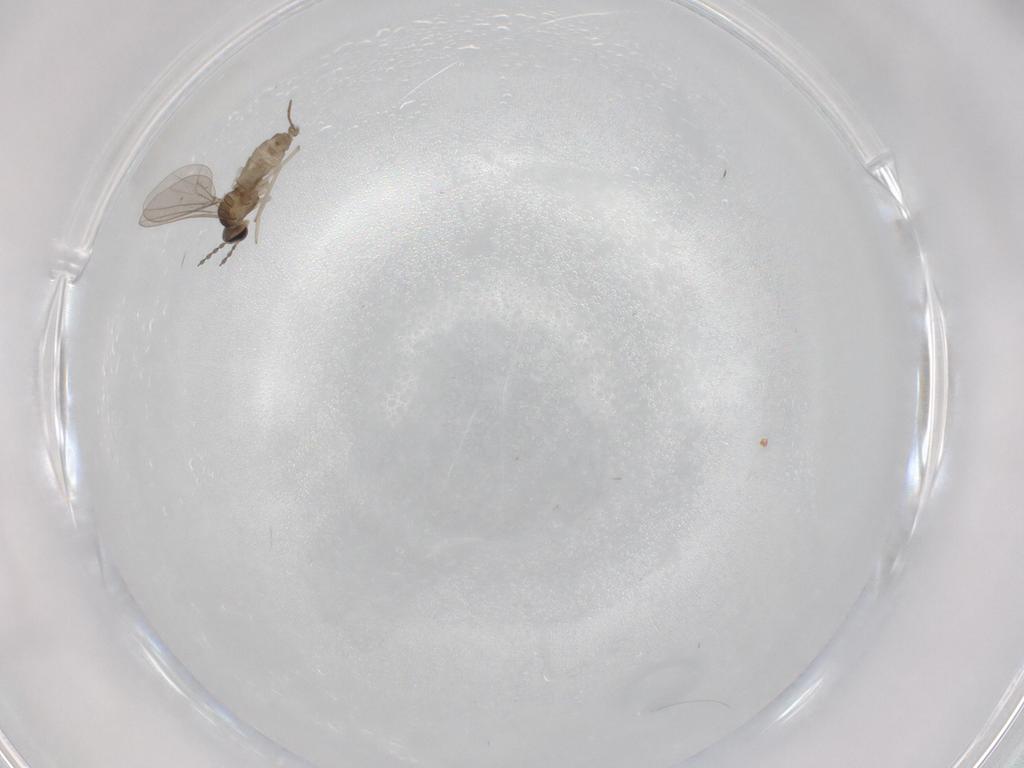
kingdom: Animalia
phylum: Arthropoda
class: Insecta
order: Diptera
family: Cecidomyiidae
